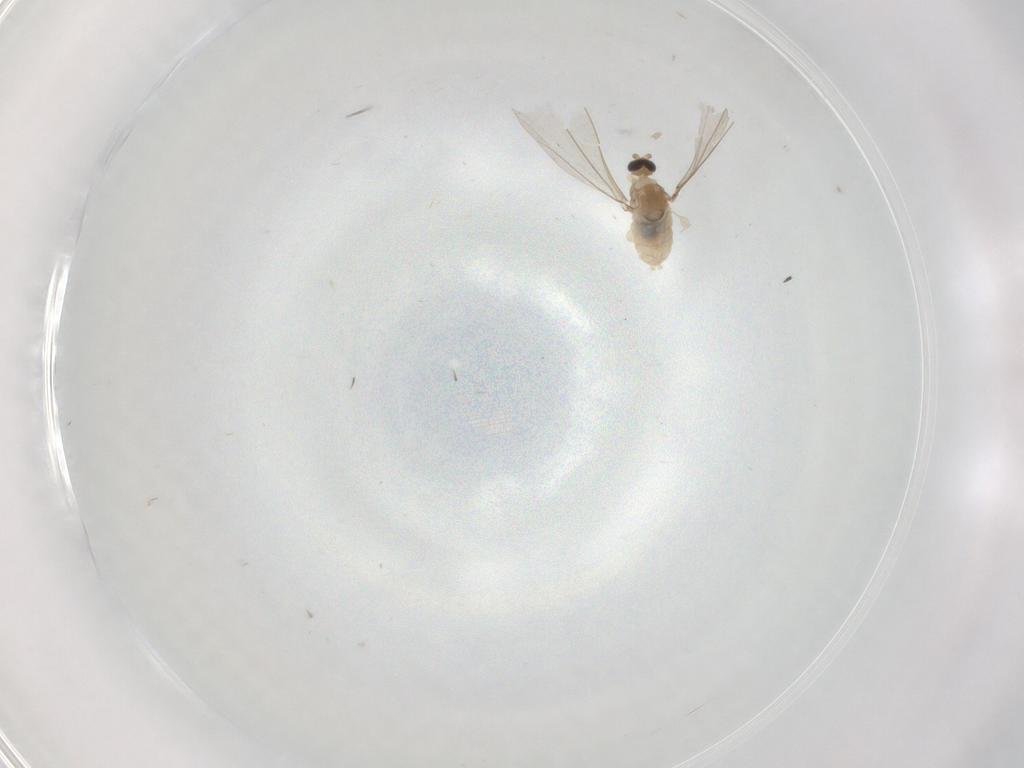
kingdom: Animalia
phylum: Arthropoda
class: Insecta
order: Diptera
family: Cecidomyiidae
